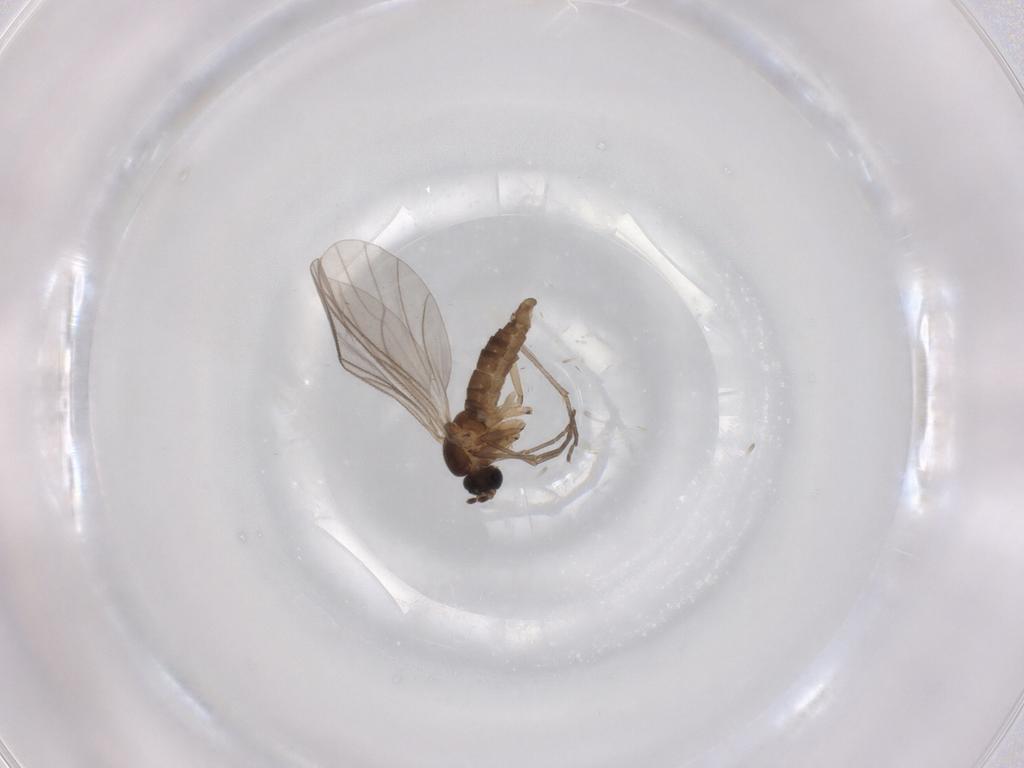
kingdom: Animalia
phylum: Arthropoda
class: Insecta
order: Diptera
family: Sciaridae
